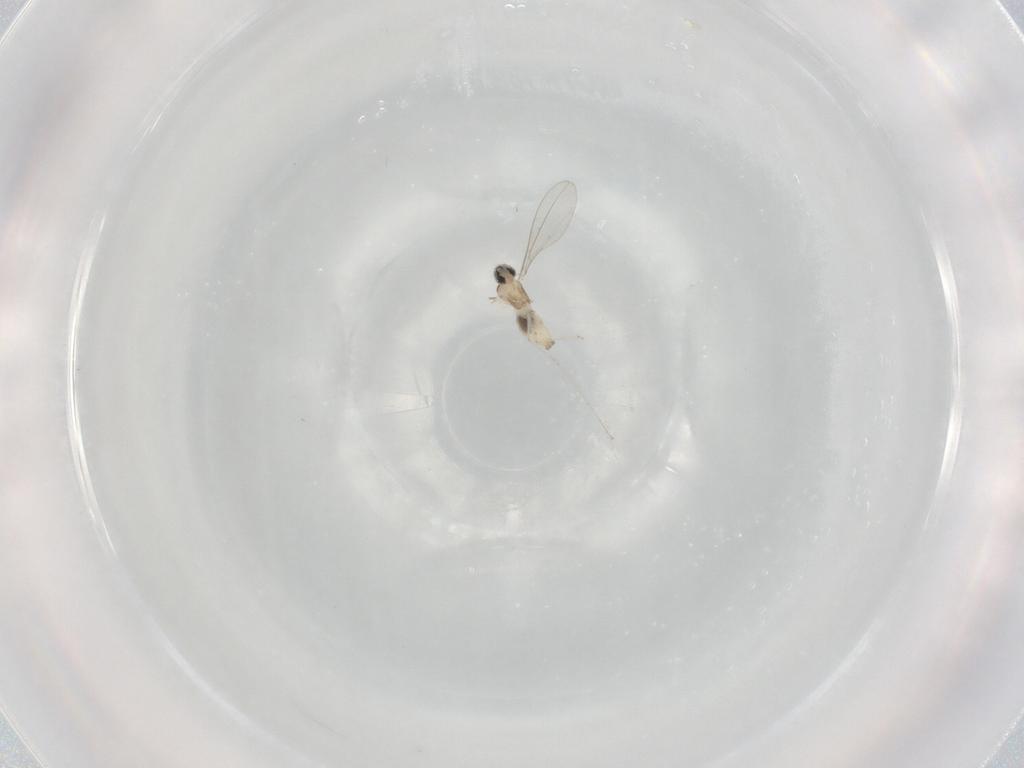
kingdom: Animalia
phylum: Arthropoda
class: Insecta
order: Diptera
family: Cecidomyiidae
